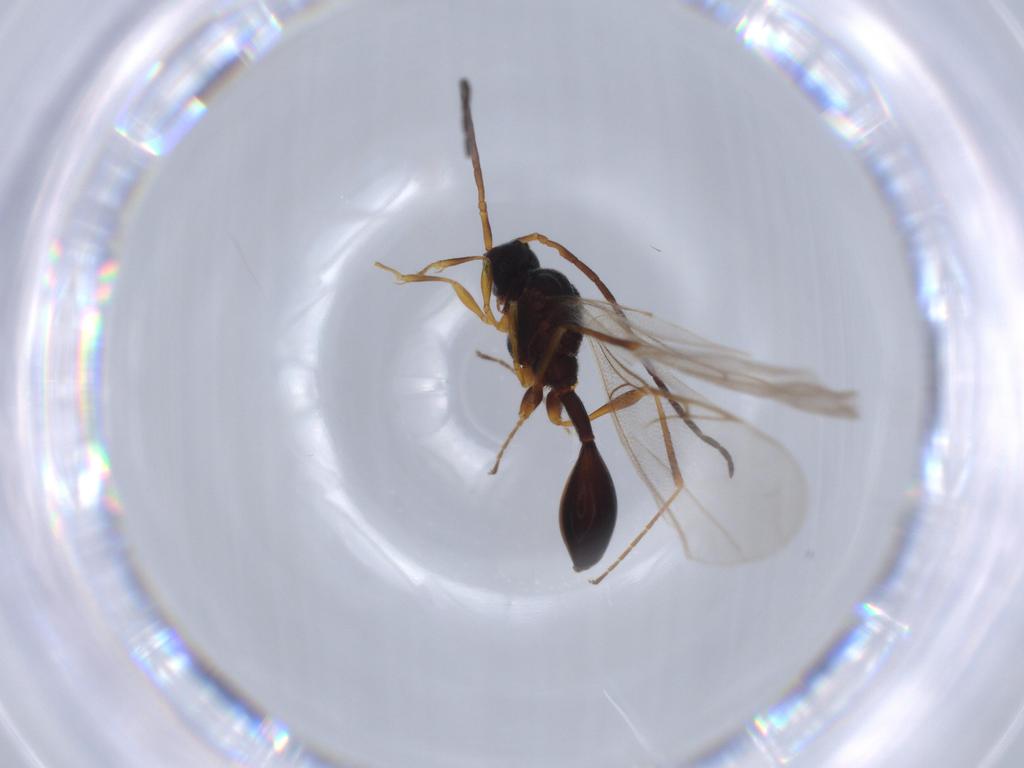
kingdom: Animalia
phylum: Arthropoda
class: Insecta
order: Hymenoptera
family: Scelionidae
